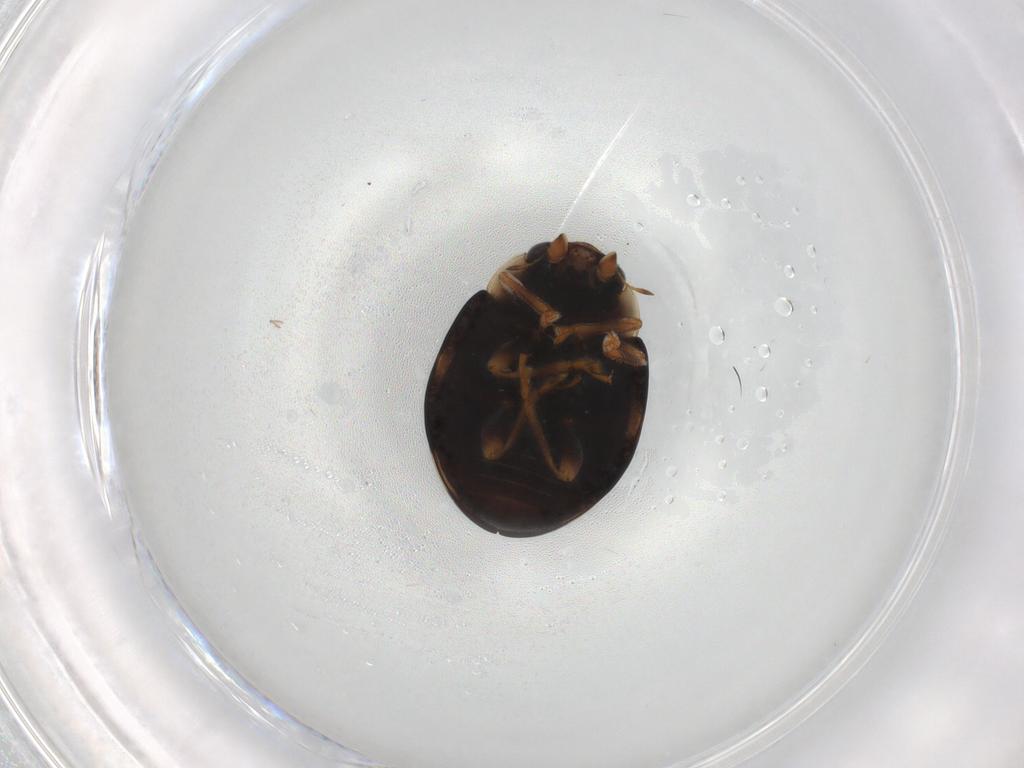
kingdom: Animalia
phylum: Arthropoda
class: Insecta
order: Coleoptera
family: Coccinellidae
